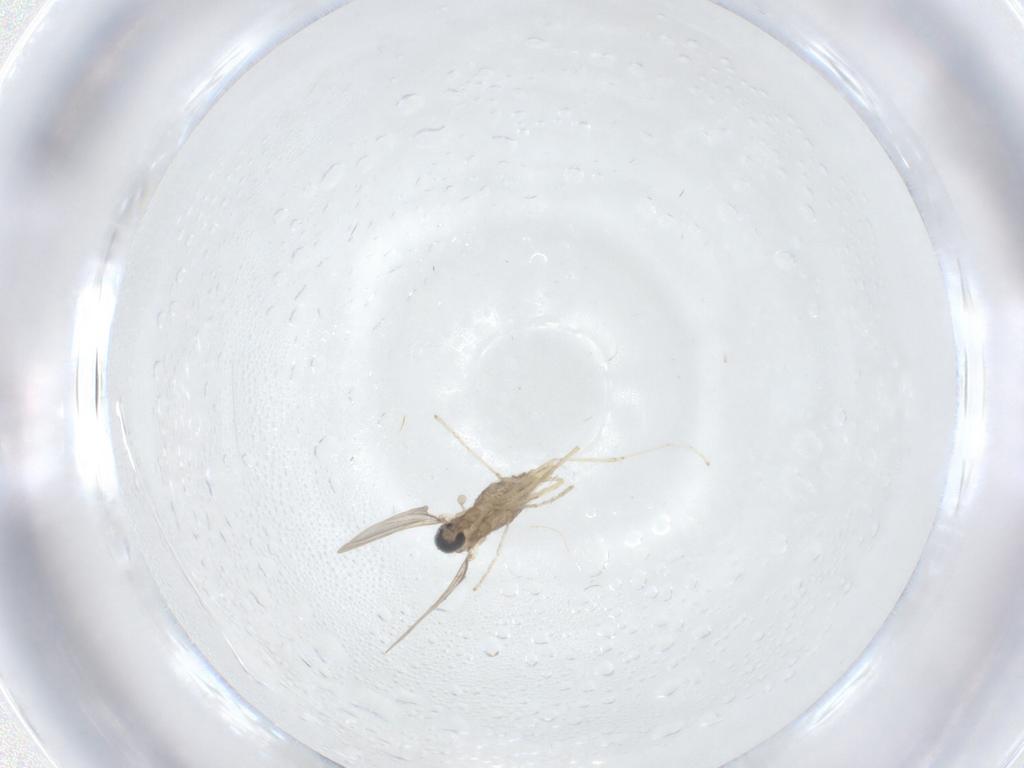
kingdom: Animalia
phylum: Arthropoda
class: Insecta
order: Diptera
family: Cecidomyiidae
